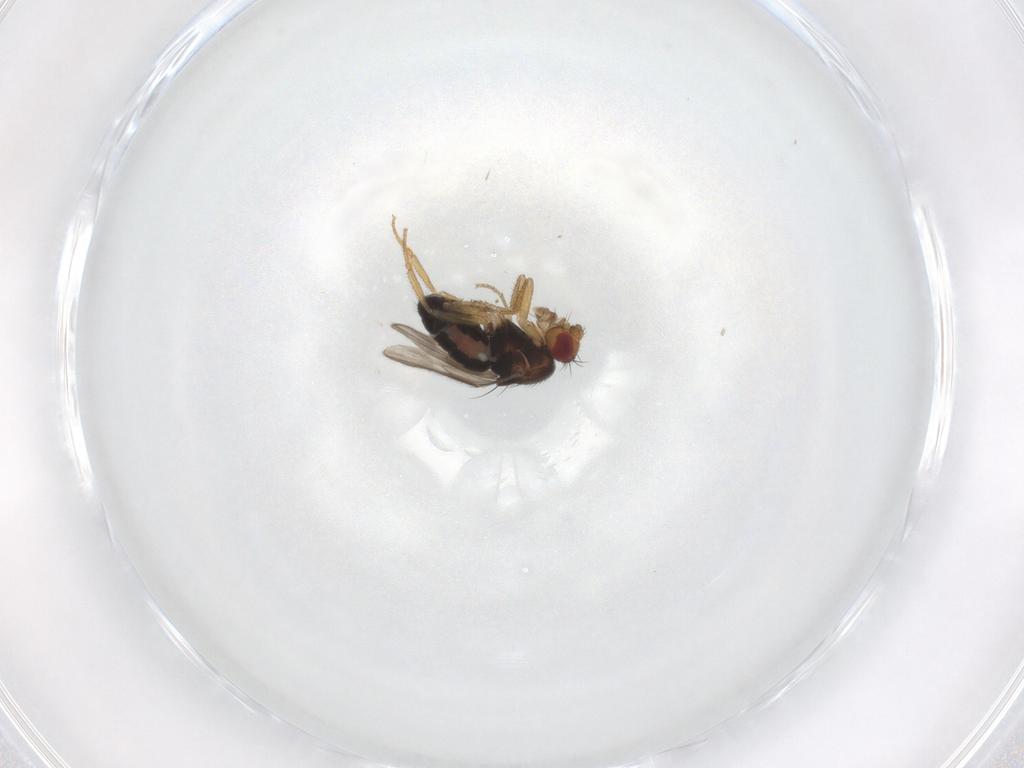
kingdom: Animalia
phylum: Arthropoda
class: Insecta
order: Diptera
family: Sphaeroceridae
